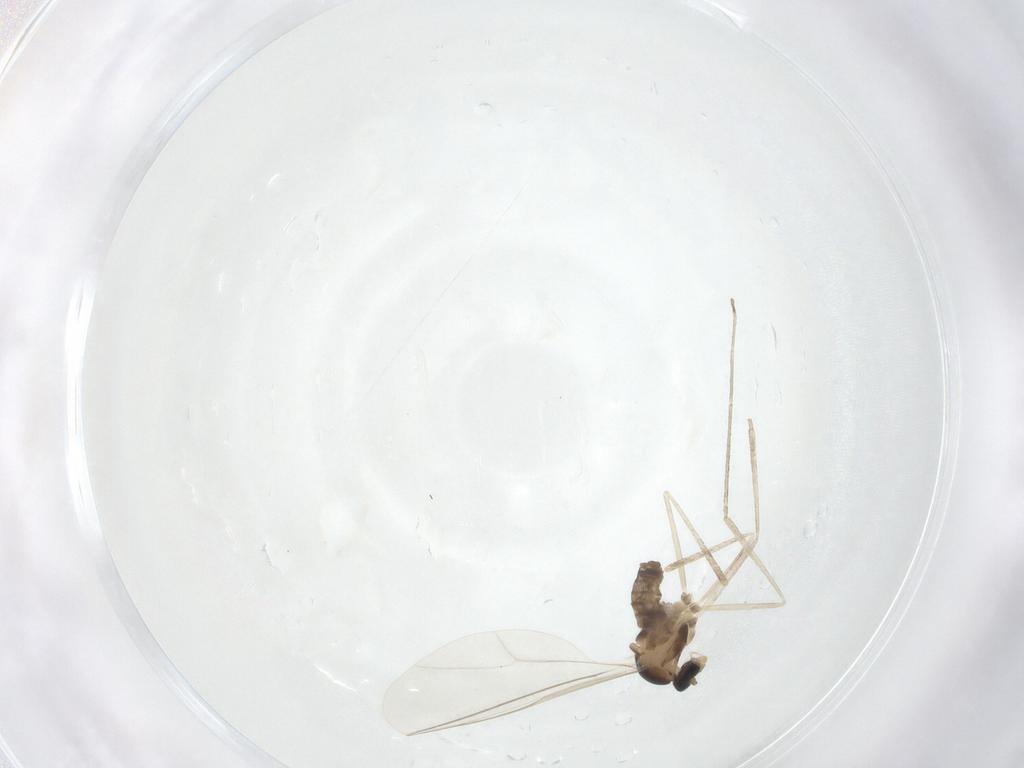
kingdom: Animalia
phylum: Arthropoda
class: Insecta
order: Diptera
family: Cecidomyiidae
